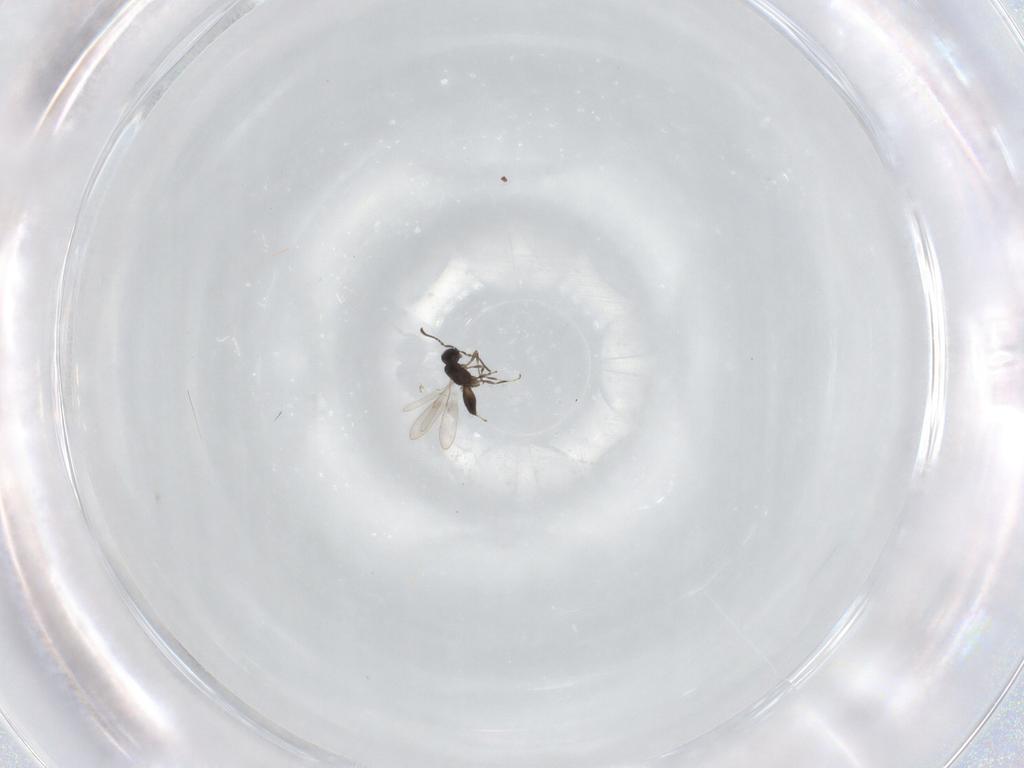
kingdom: Animalia
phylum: Arthropoda
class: Insecta
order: Hymenoptera
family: Scelionidae
